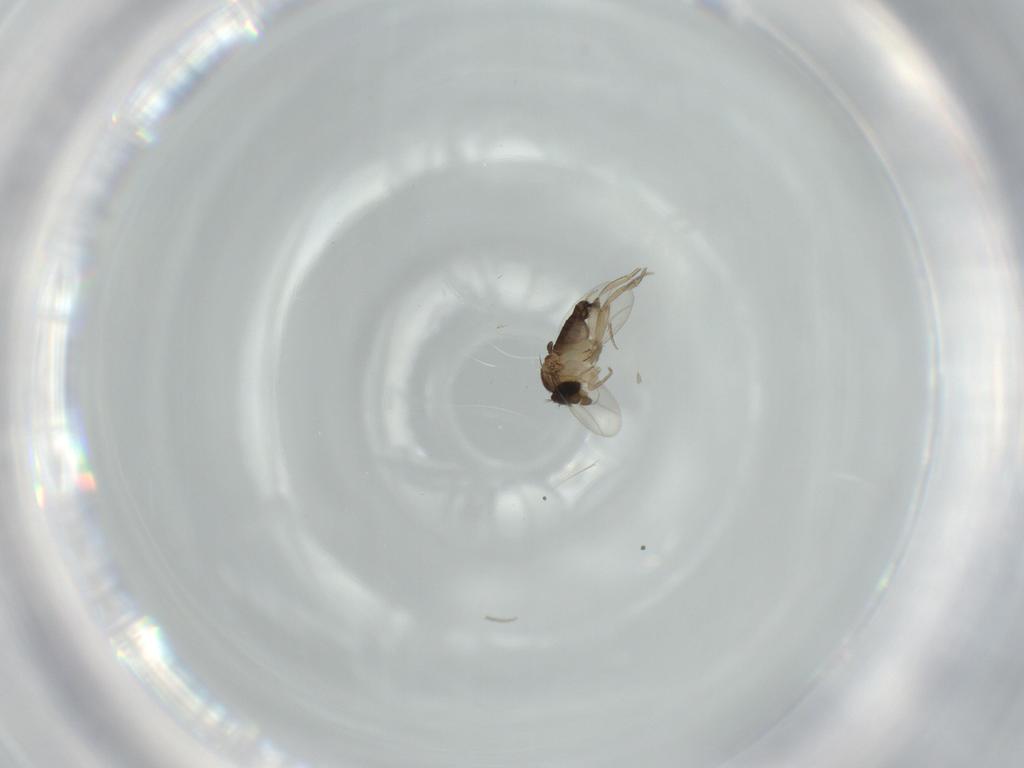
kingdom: Animalia
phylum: Arthropoda
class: Insecta
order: Diptera
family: Phoridae
